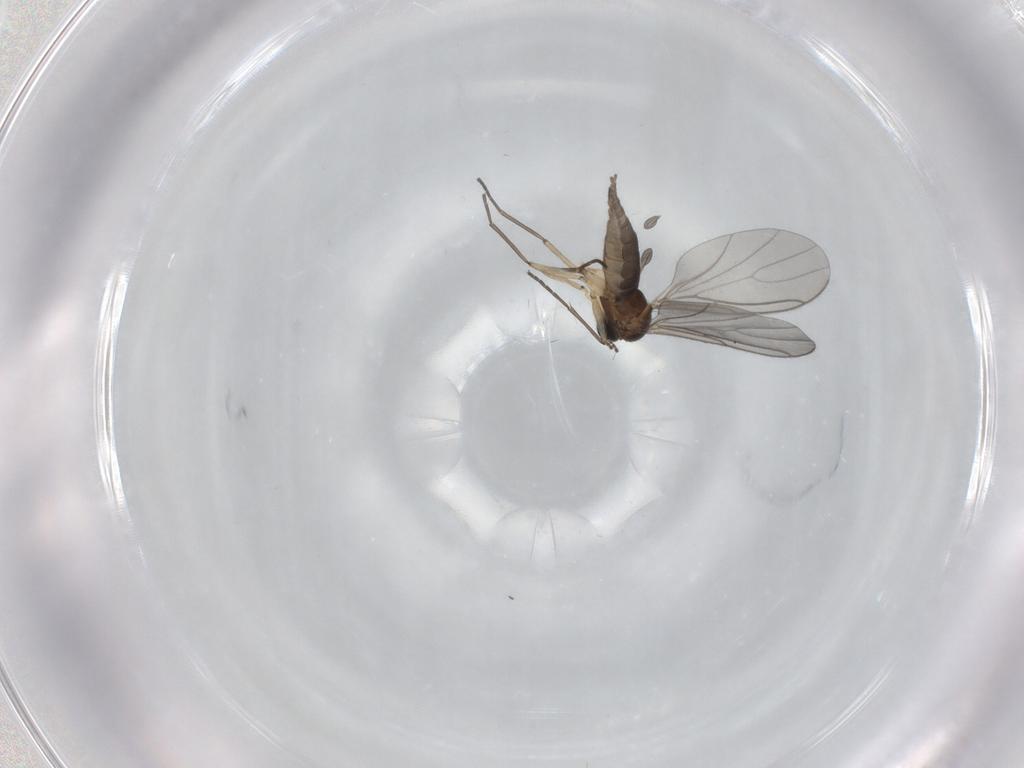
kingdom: Animalia
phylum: Arthropoda
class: Insecta
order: Diptera
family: Sciaridae
